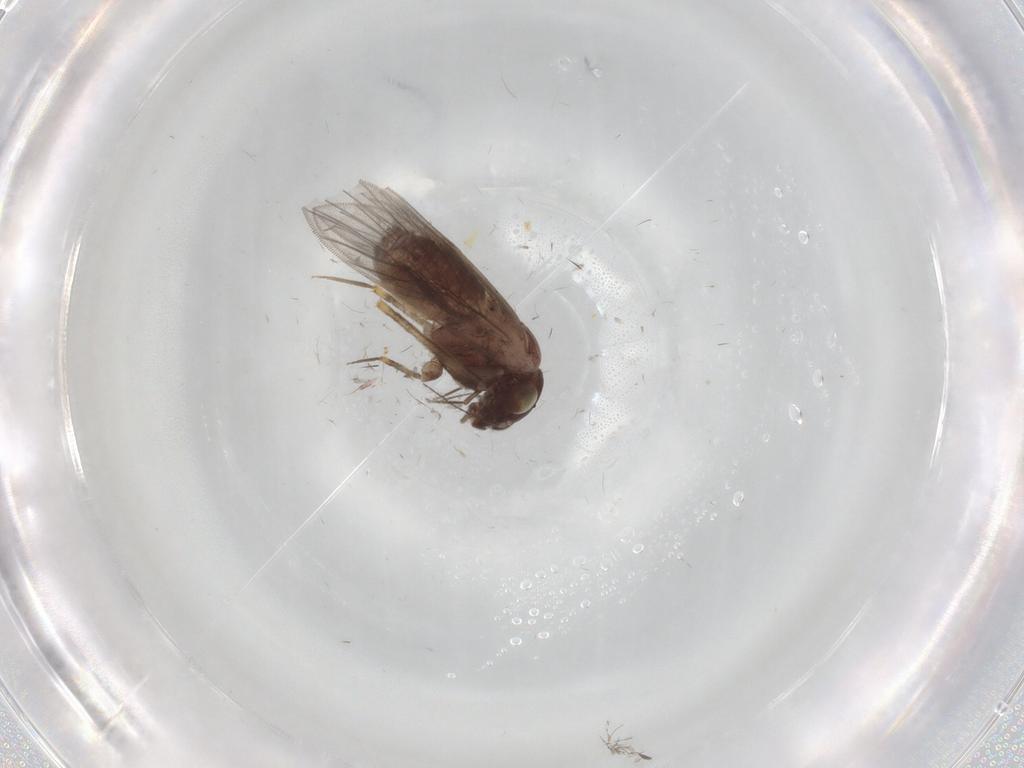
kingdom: Animalia
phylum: Arthropoda
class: Insecta
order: Psocodea
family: Lepidopsocidae
